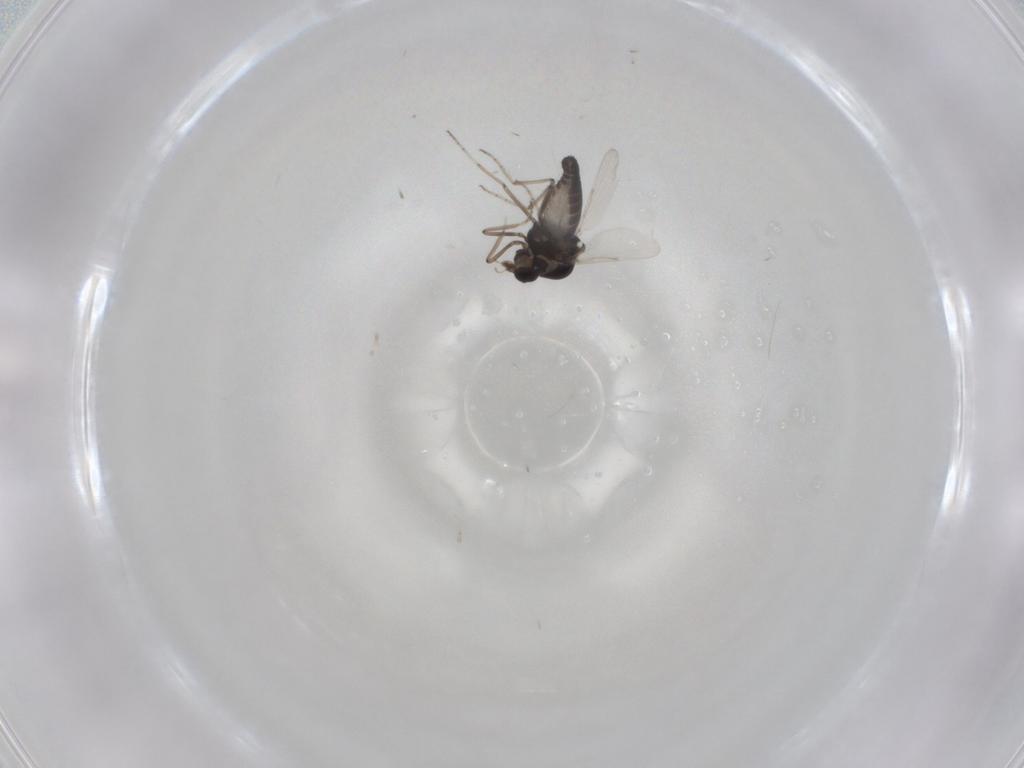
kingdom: Animalia
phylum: Arthropoda
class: Insecta
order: Diptera
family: Ceratopogonidae
